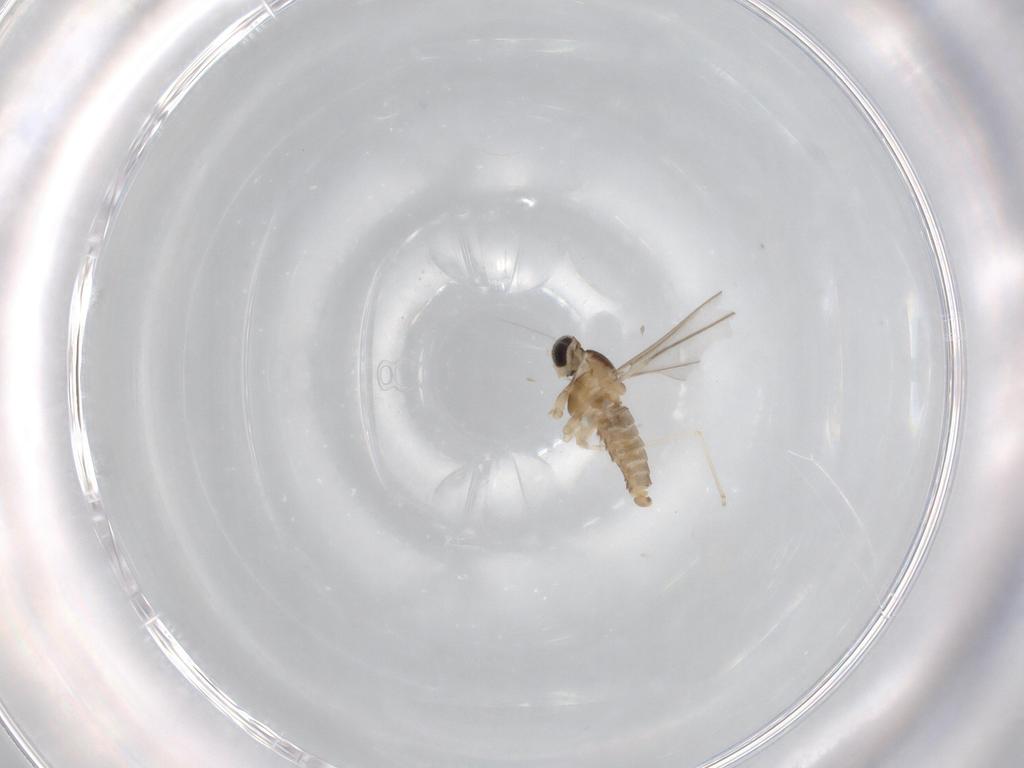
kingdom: Animalia
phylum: Arthropoda
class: Insecta
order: Diptera
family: Cecidomyiidae
